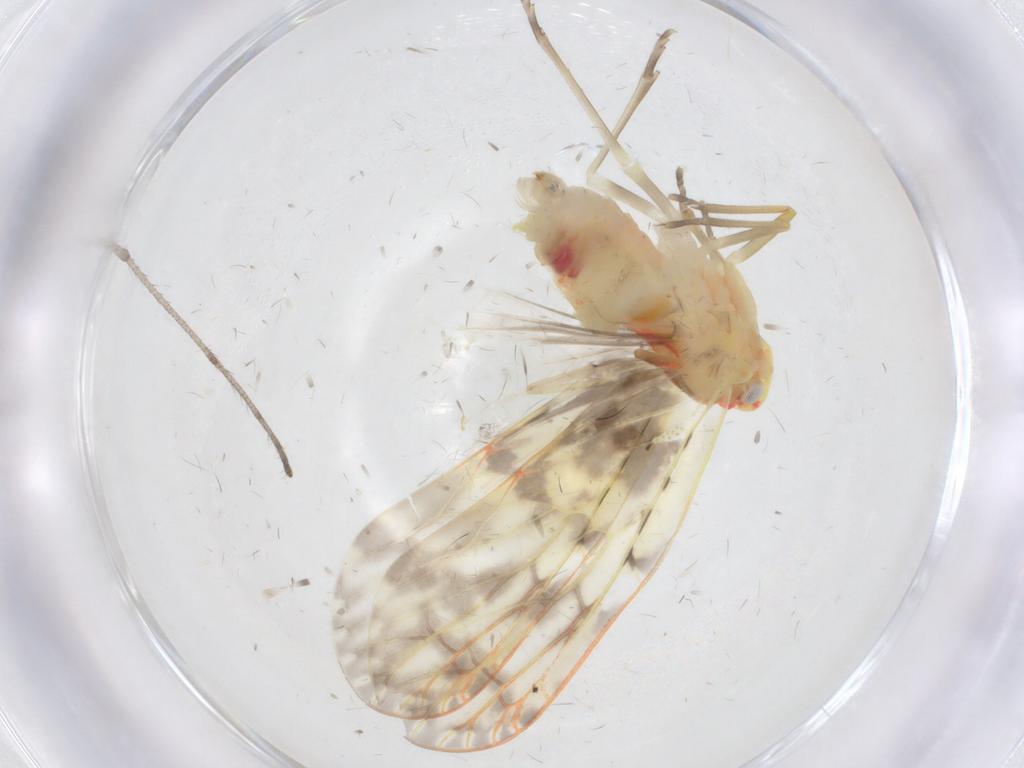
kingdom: Animalia
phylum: Arthropoda
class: Insecta
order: Hemiptera
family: Derbidae
